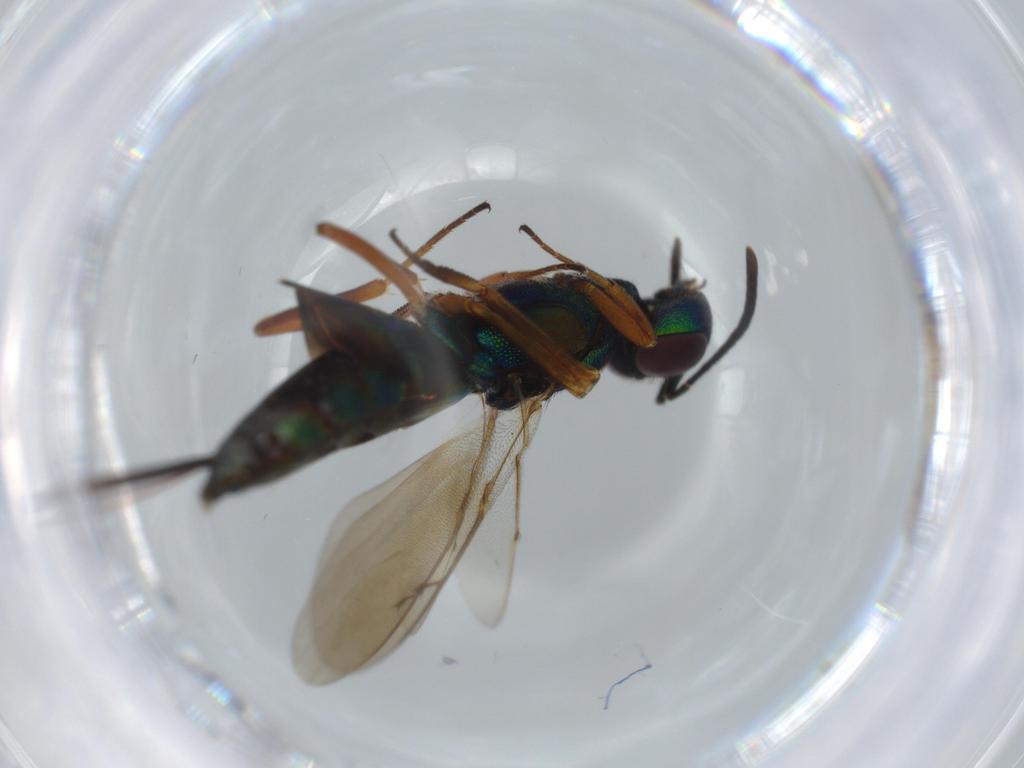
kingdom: Animalia
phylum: Arthropoda
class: Insecta
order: Hymenoptera
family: Eupelmidae
